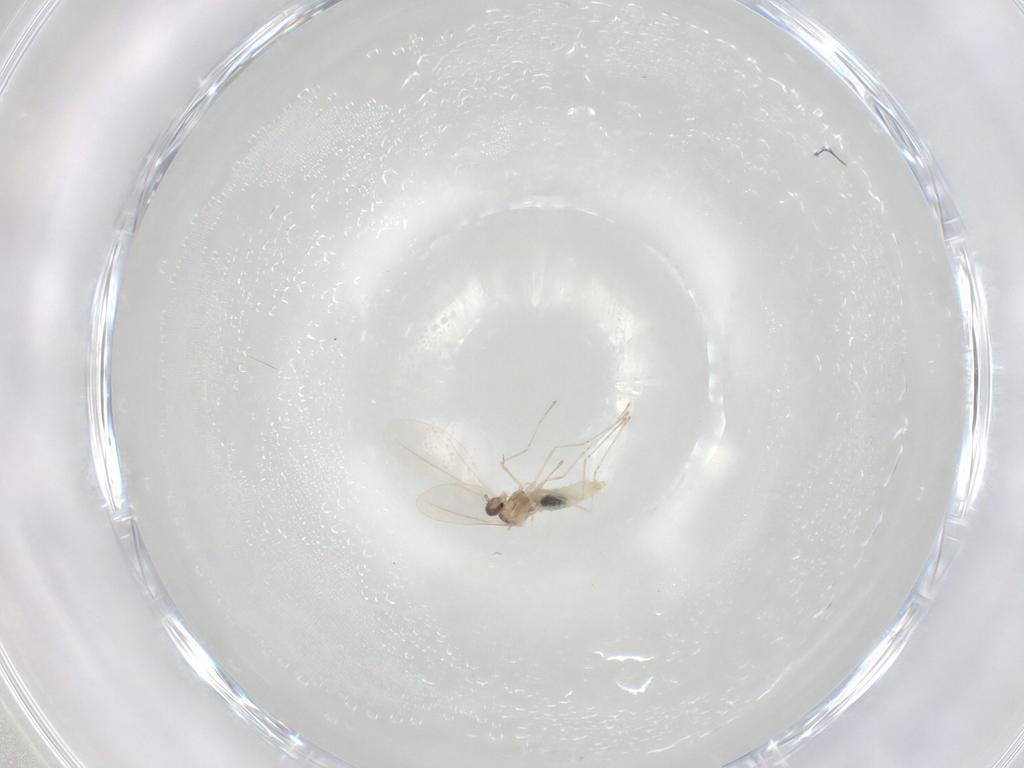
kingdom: Animalia
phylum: Arthropoda
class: Insecta
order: Diptera
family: Cecidomyiidae
